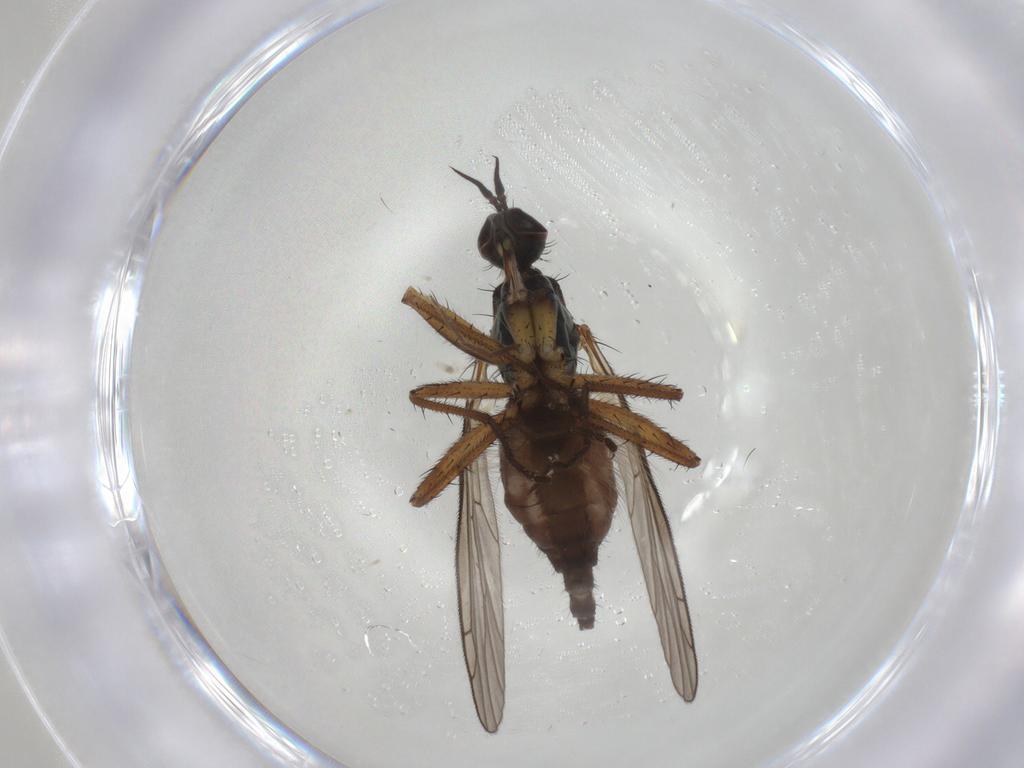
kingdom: Animalia
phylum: Arthropoda
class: Insecta
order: Diptera
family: Empididae
